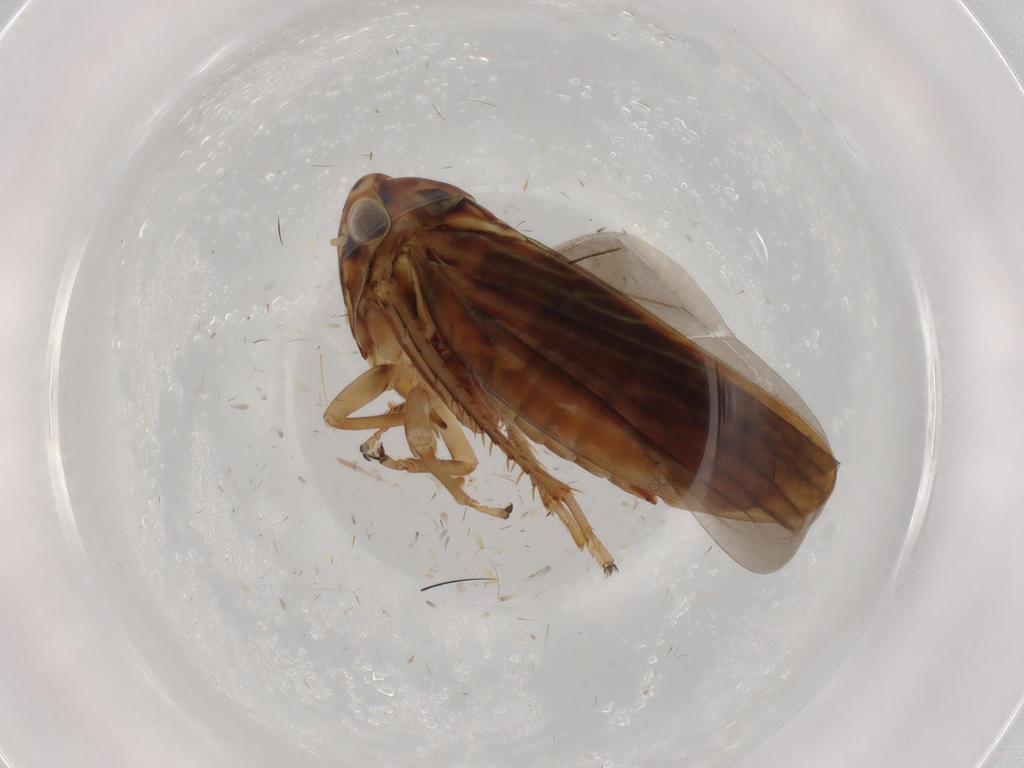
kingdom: Animalia
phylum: Arthropoda
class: Insecta
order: Hemiptera
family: Cicadellidae
